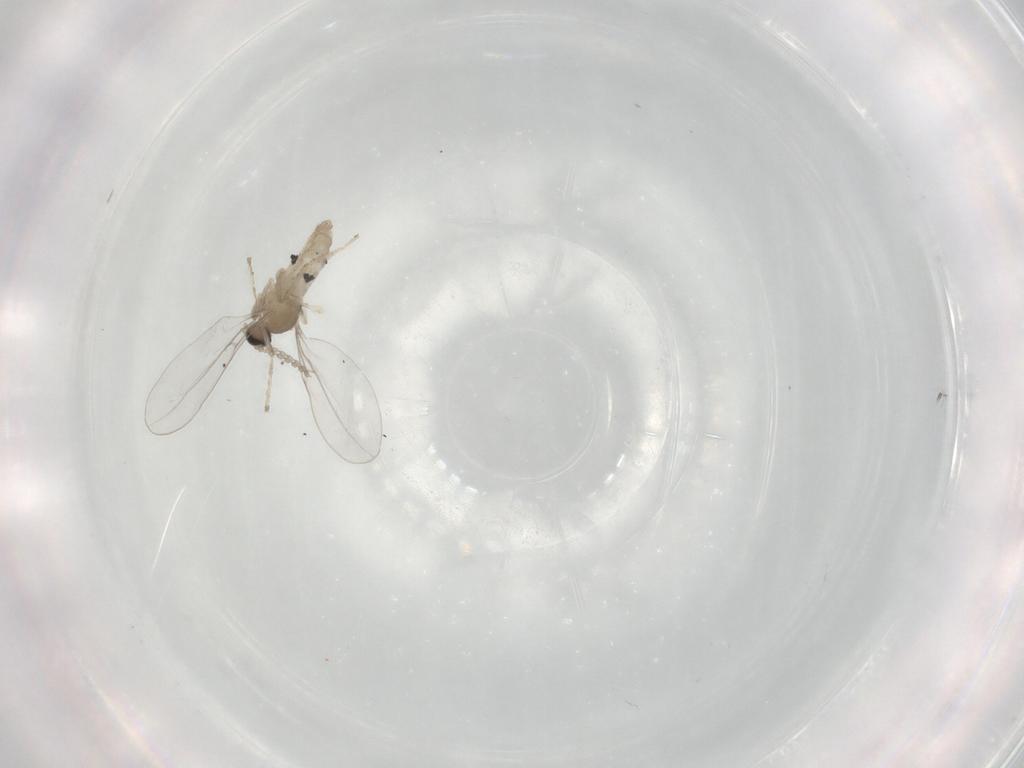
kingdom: Animalia
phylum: Arthropoda
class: Insecta
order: Diptera
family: Cecidomyiidae
